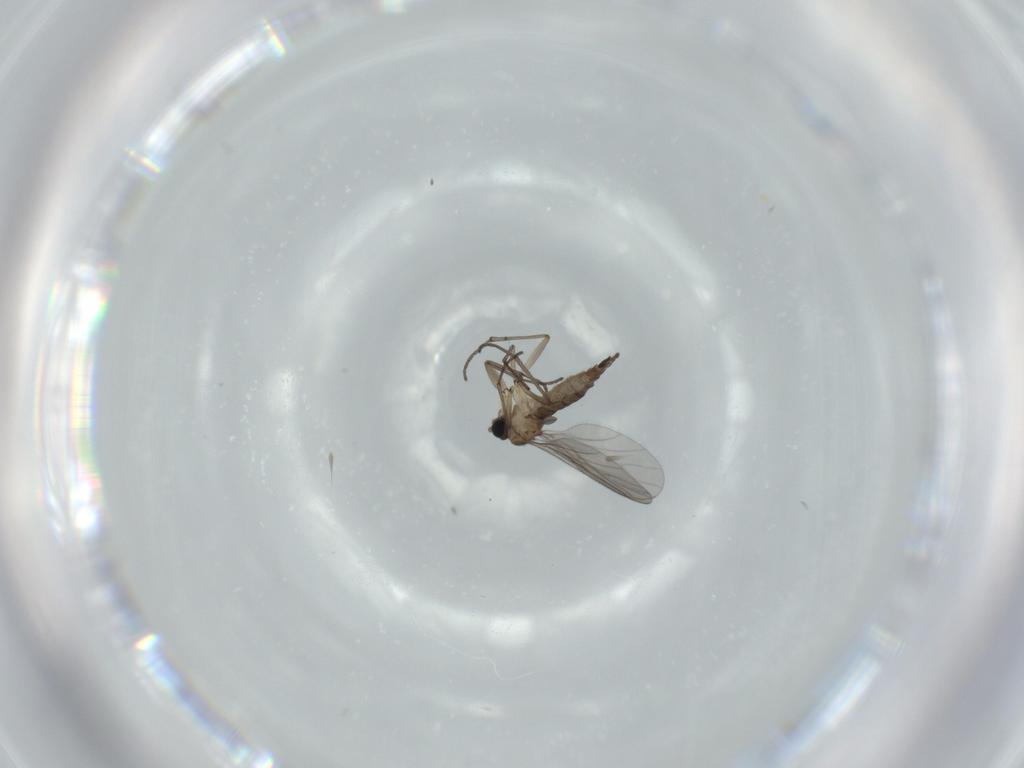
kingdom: Animalia
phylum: Arthropoda
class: Insecta
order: Diptera
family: Sciaridae
